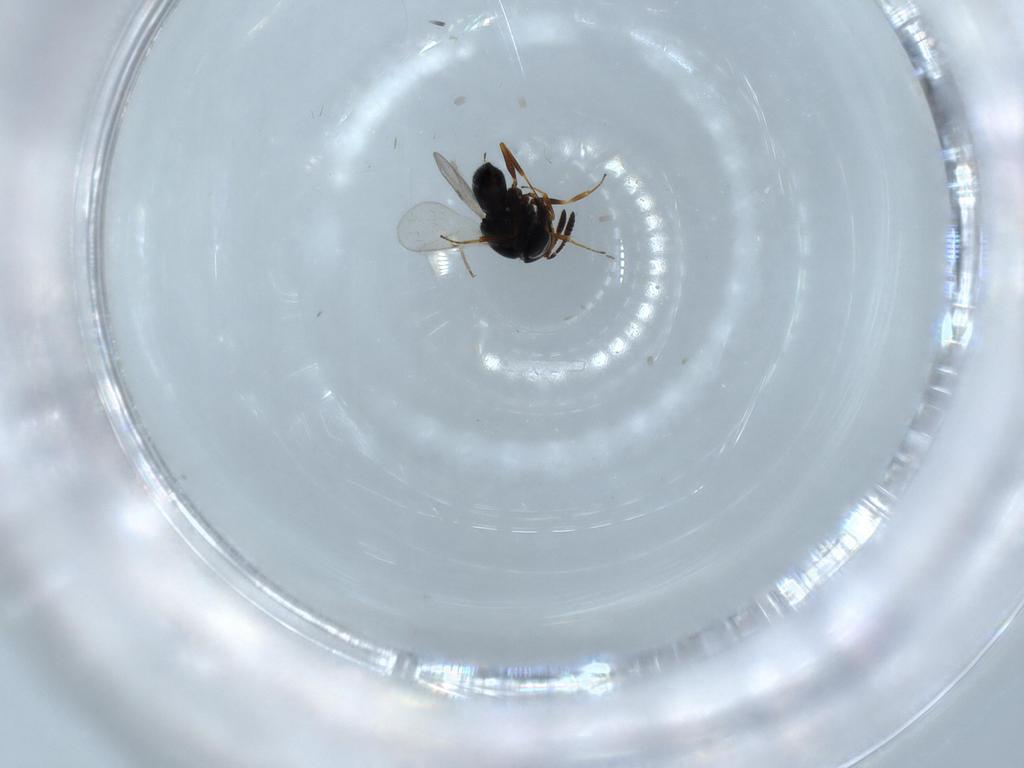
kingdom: Animalia
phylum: Arthropoda
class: Insecta
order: Hymenoptera
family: Scelionidae
